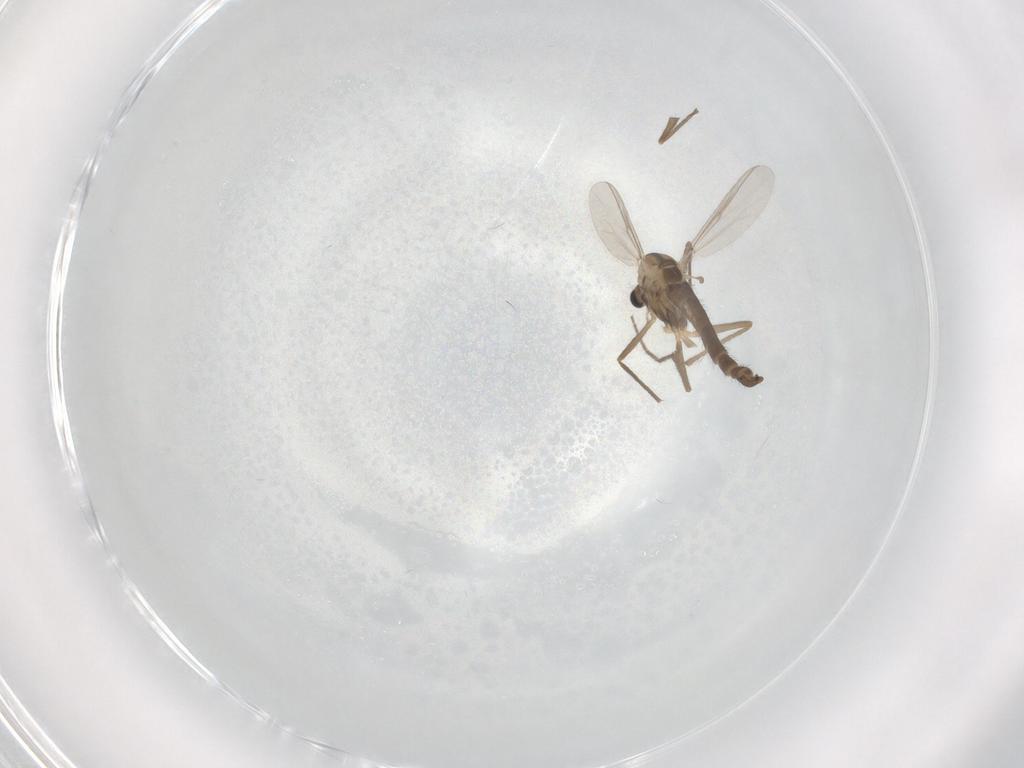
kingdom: Animalia
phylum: Arthropoda
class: Insecta
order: Diptera
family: Chironomidae
